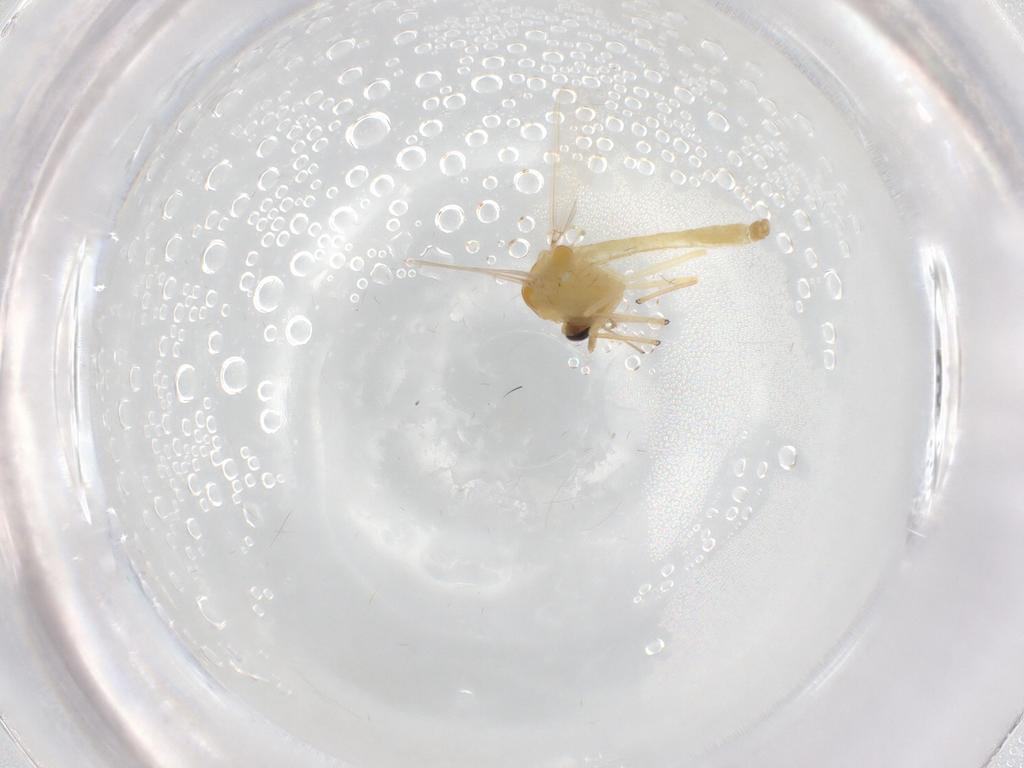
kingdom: Animalia
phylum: Arthropoda
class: Insecta
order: Diptera
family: Chironomidae
